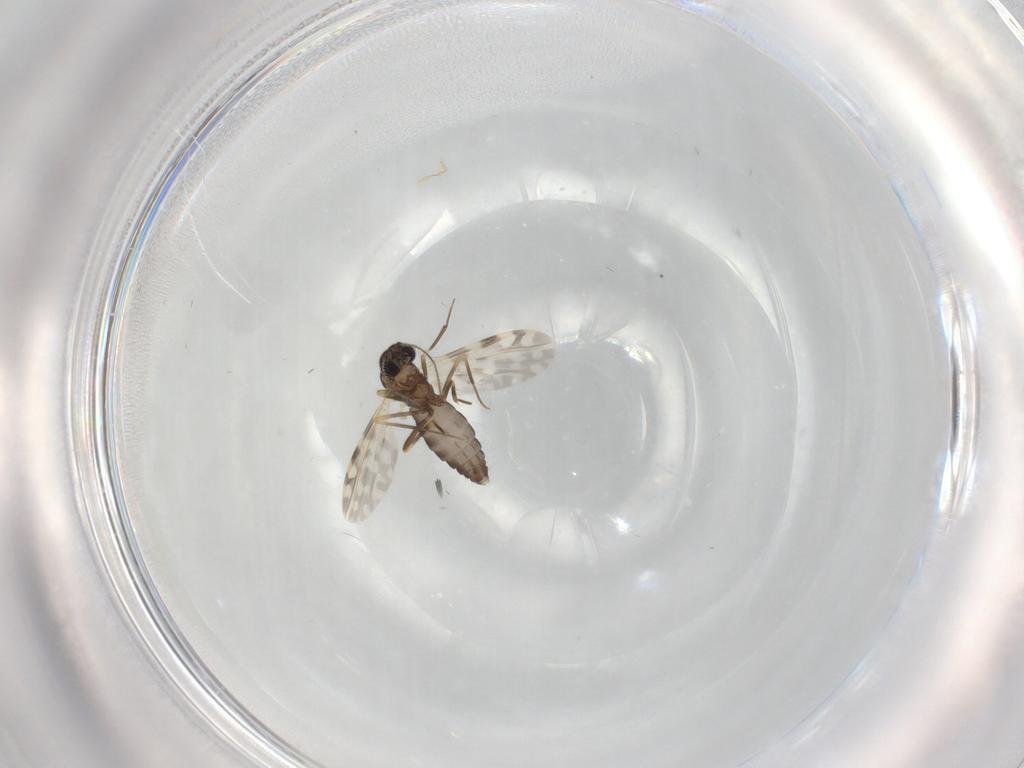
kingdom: Animalia
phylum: Arthropoda
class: Insecta
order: Diptera
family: Ceratopogonidae
